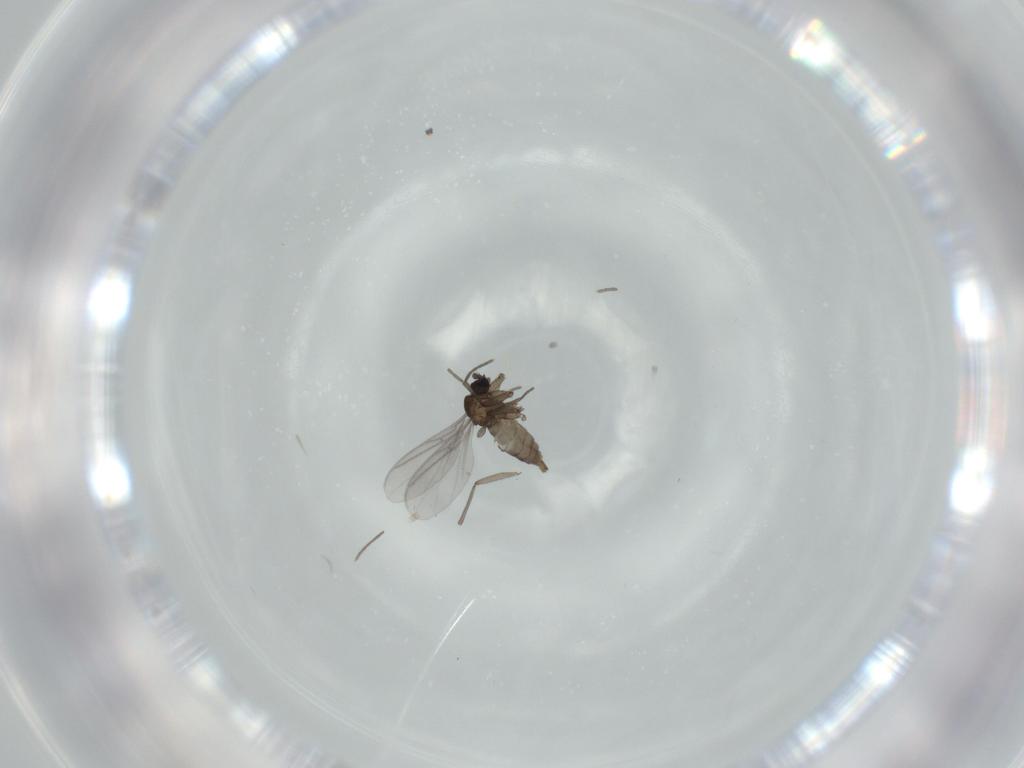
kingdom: Animalia
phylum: Arthropoda
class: Insecta
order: Diptera
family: Sciaridae
